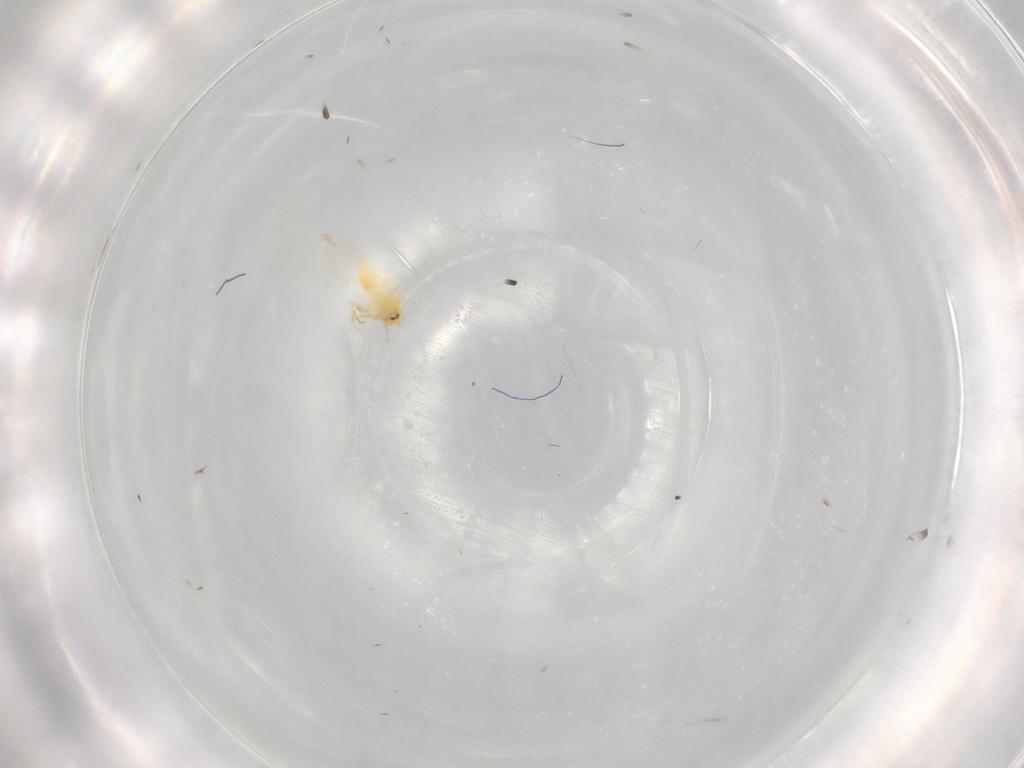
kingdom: Animalia
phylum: Arthropoda
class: Insecta
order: Hemiptera
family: Aleyrodidae
